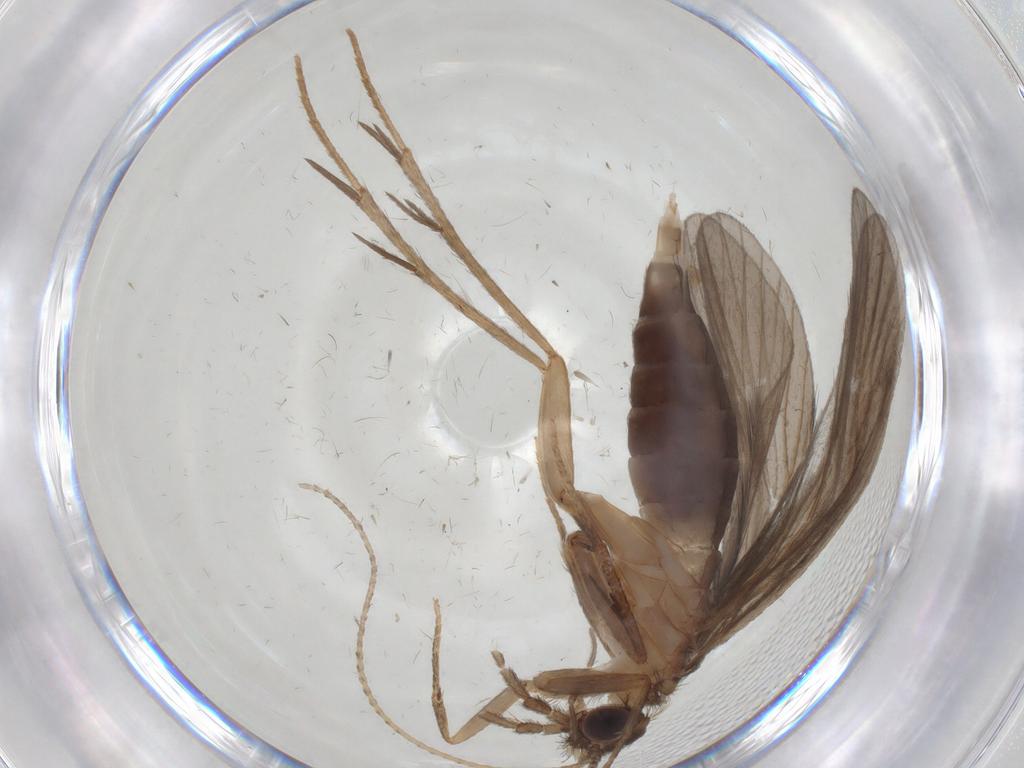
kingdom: Animalia
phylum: Arthropoda
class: Insecta
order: Trichoptera
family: Philopotamidae
